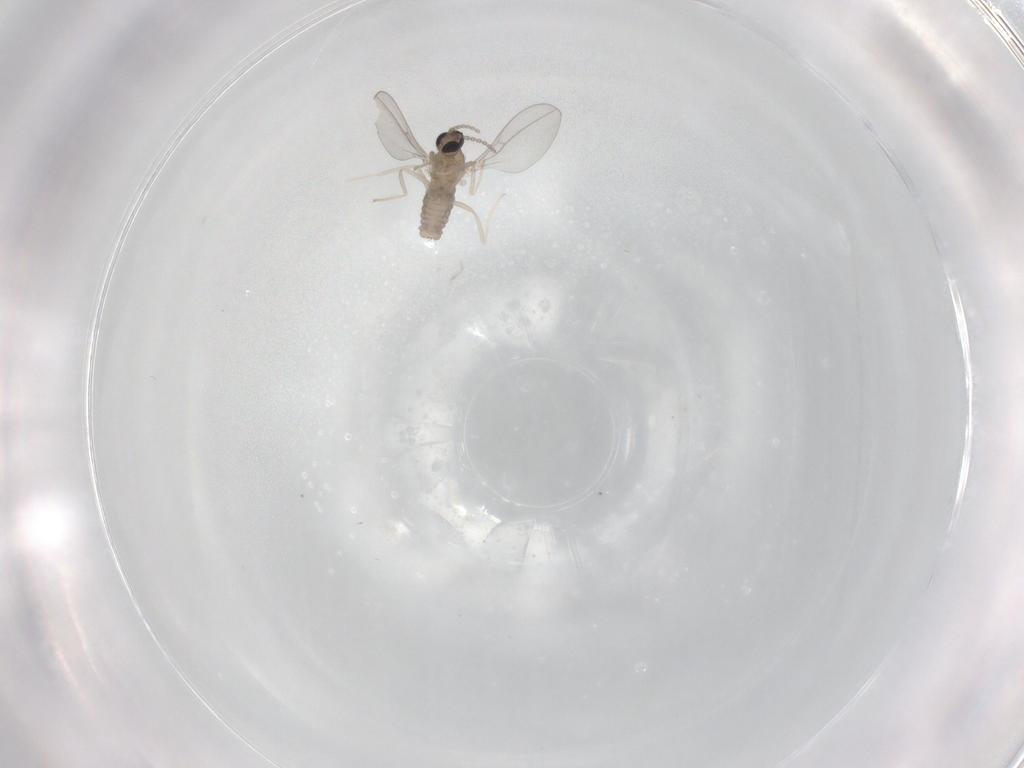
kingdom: Animalia
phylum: Arthropoda
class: Insecta
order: Diptera
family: Cecidomyiidae
